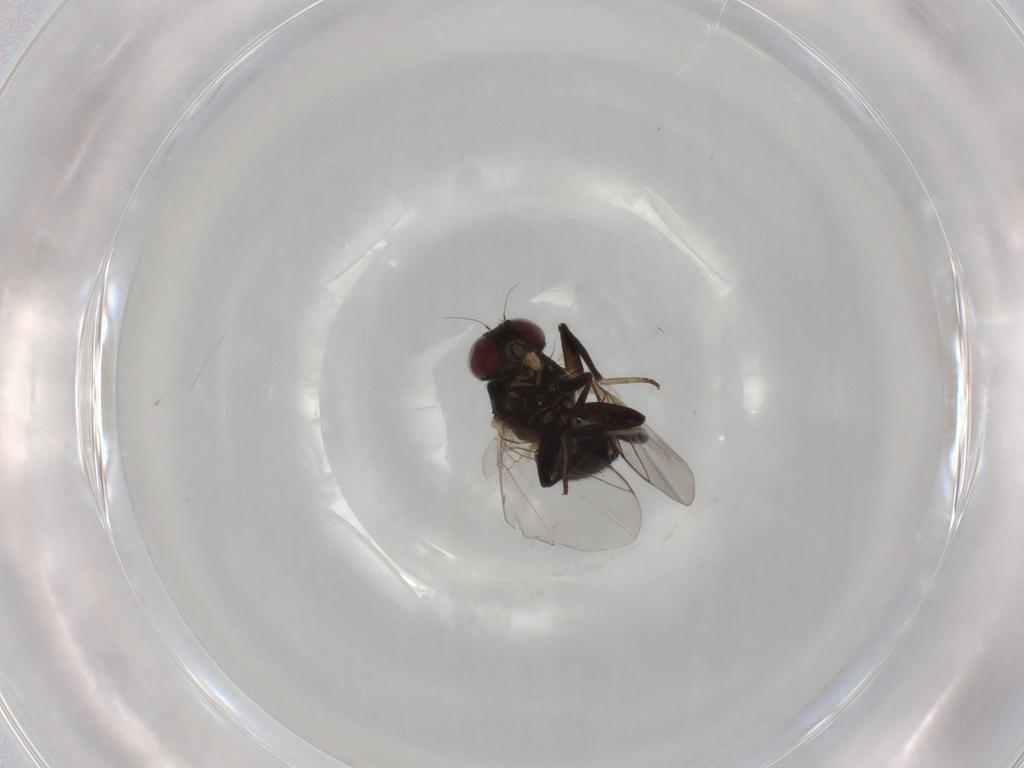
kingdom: Animalia
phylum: Arthropoda
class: Insecta
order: Diptera
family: Agromyzidae
